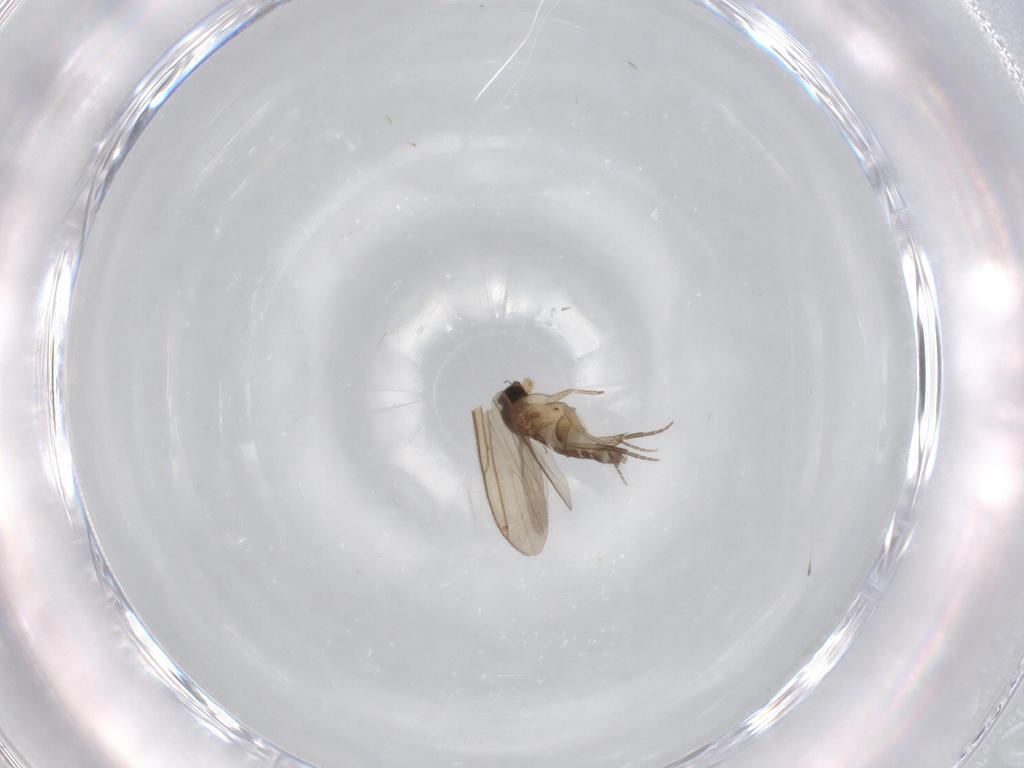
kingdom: Animalia
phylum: Arthropoda
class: Insecta
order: Diptera
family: Phoridae
